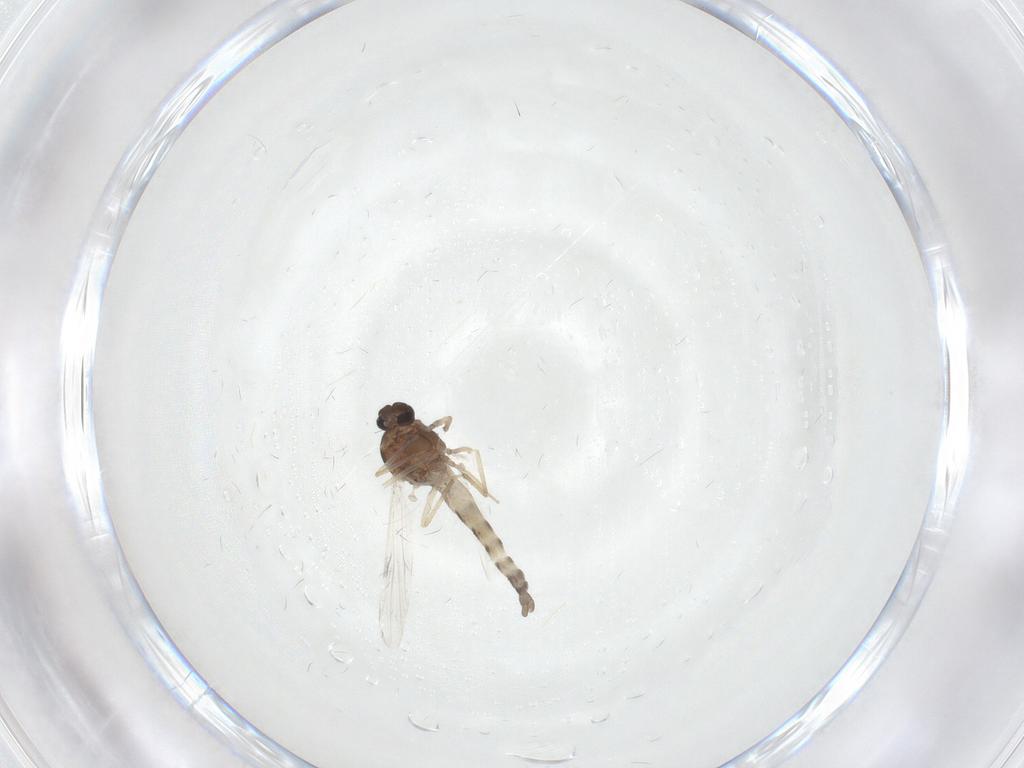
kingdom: Animalia
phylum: Arthropoda
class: Insecta
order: Diptera
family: Ceratopogonidae
